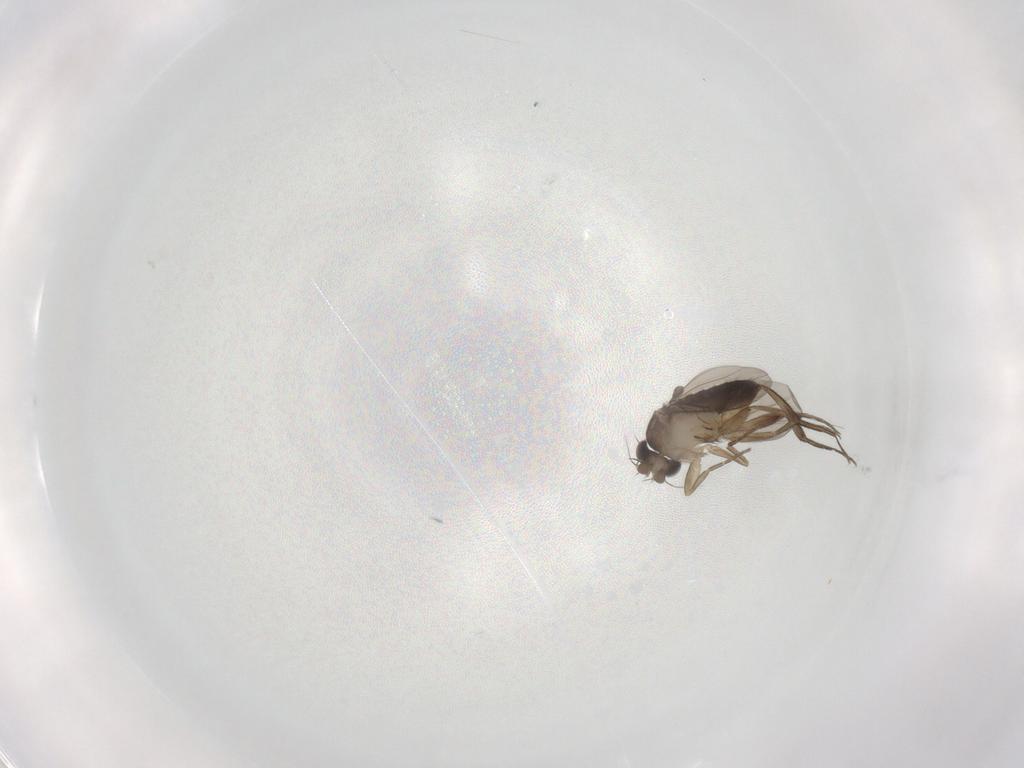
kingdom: Animalia
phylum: Arthropoda
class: Insecta
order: Diptera
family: Phoridae
